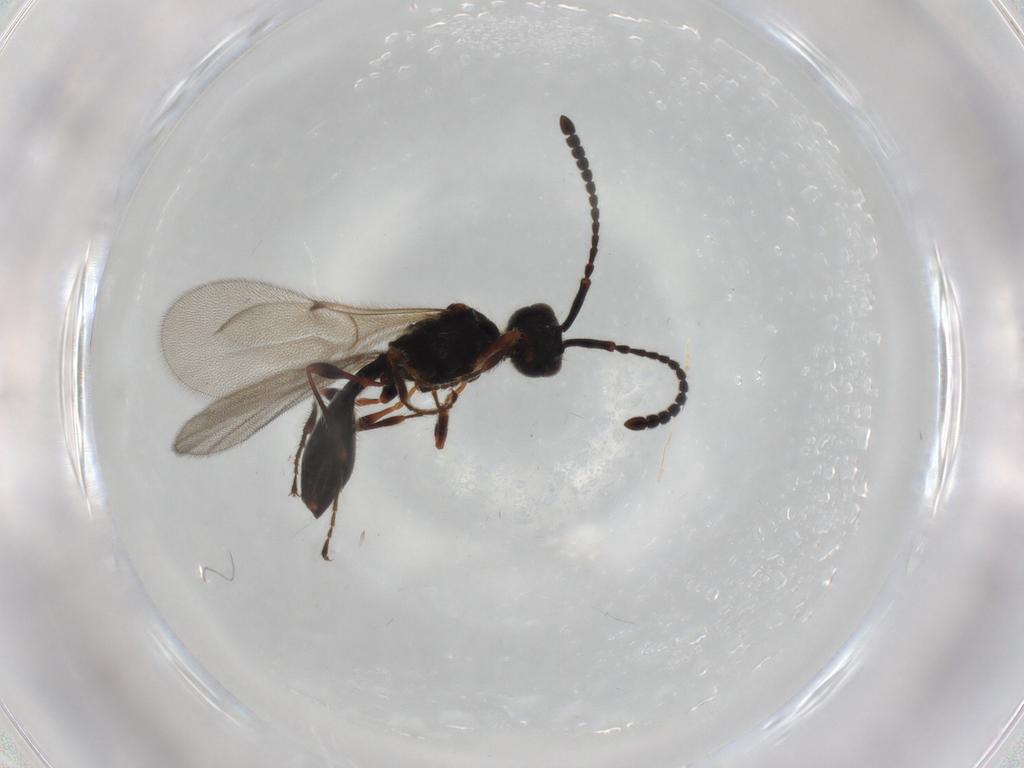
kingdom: Animalia
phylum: Arthropoda
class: Insecta
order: Hymenoptera
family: Diapriidae
